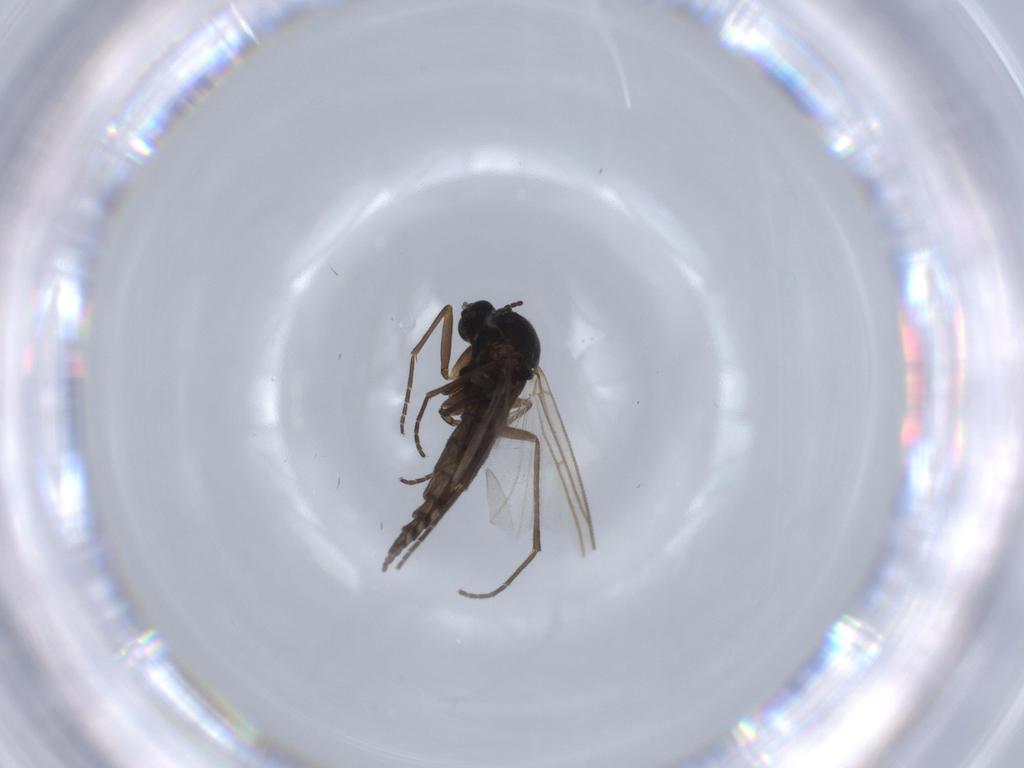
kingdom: Animalia
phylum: Arthropoda
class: Insecta
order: Diptera
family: Sciaridae
